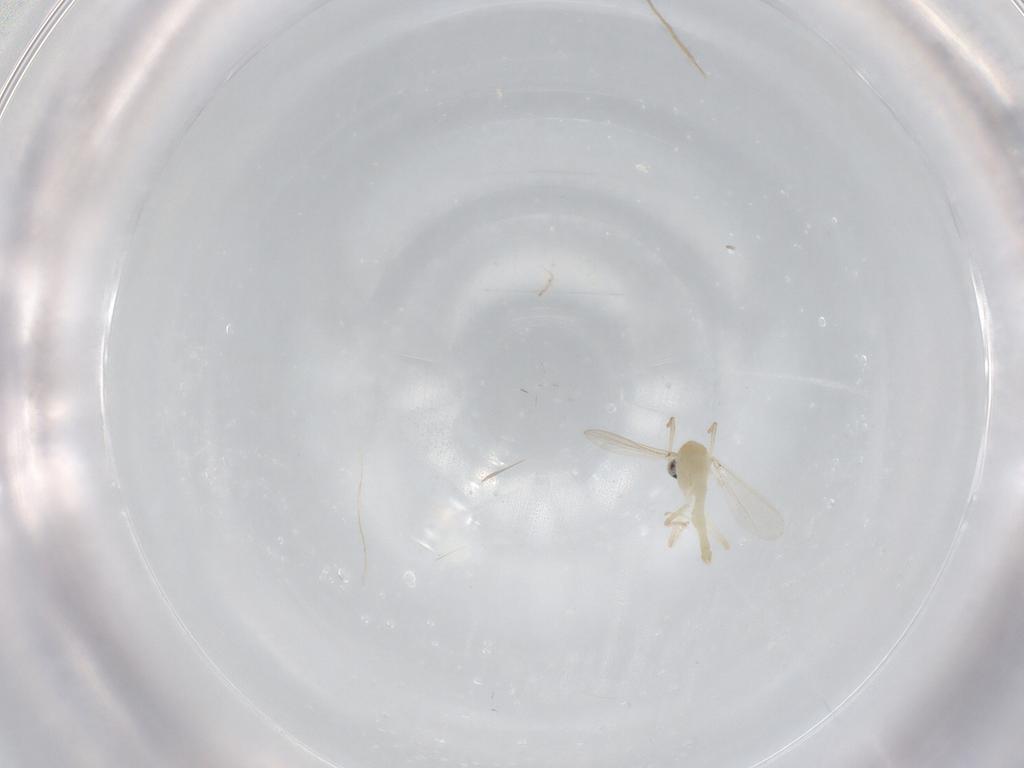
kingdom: Animalia
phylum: Arthropoda
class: Insecta
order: Diptera
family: Chironomidae
